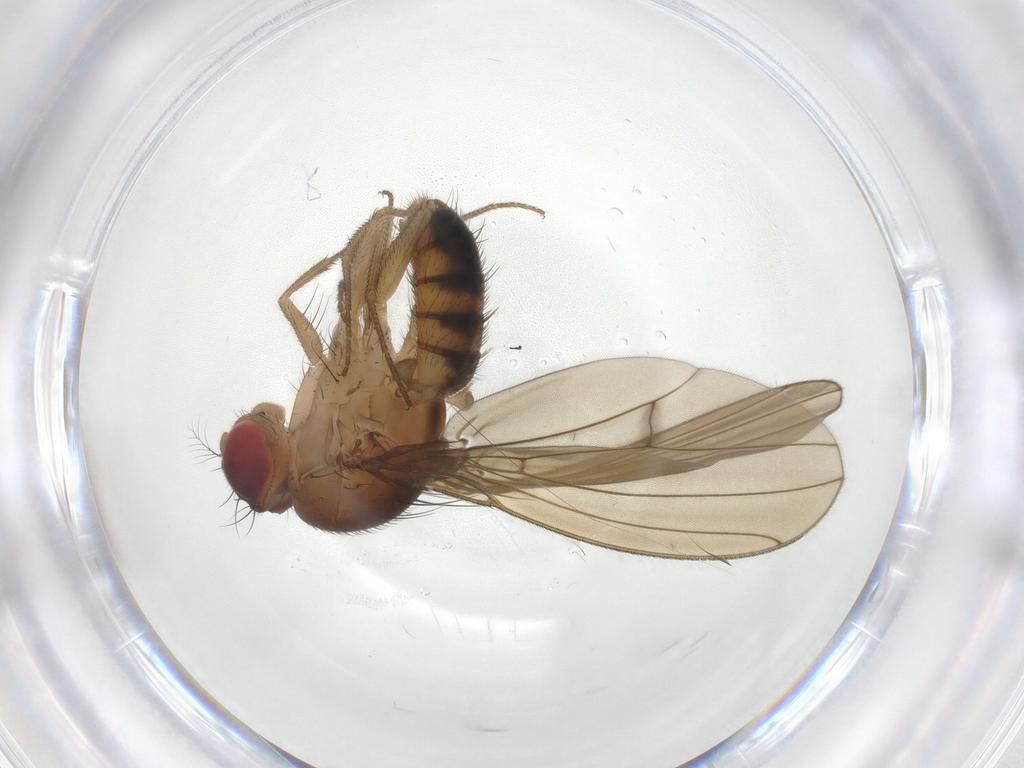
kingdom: Animalia
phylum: Arthropoda
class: Insecta
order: Diptera
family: Drosophilidae
